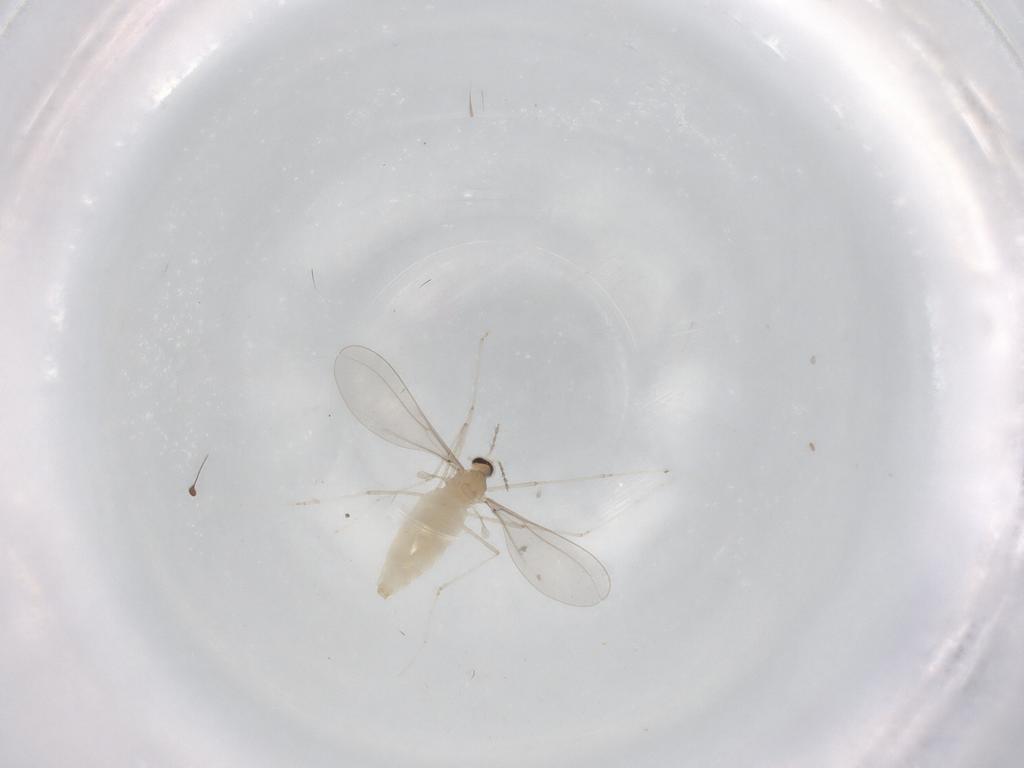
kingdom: Animalia
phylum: Arthropoda
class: Insecta
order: Diptera
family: Cecidomyiidae
